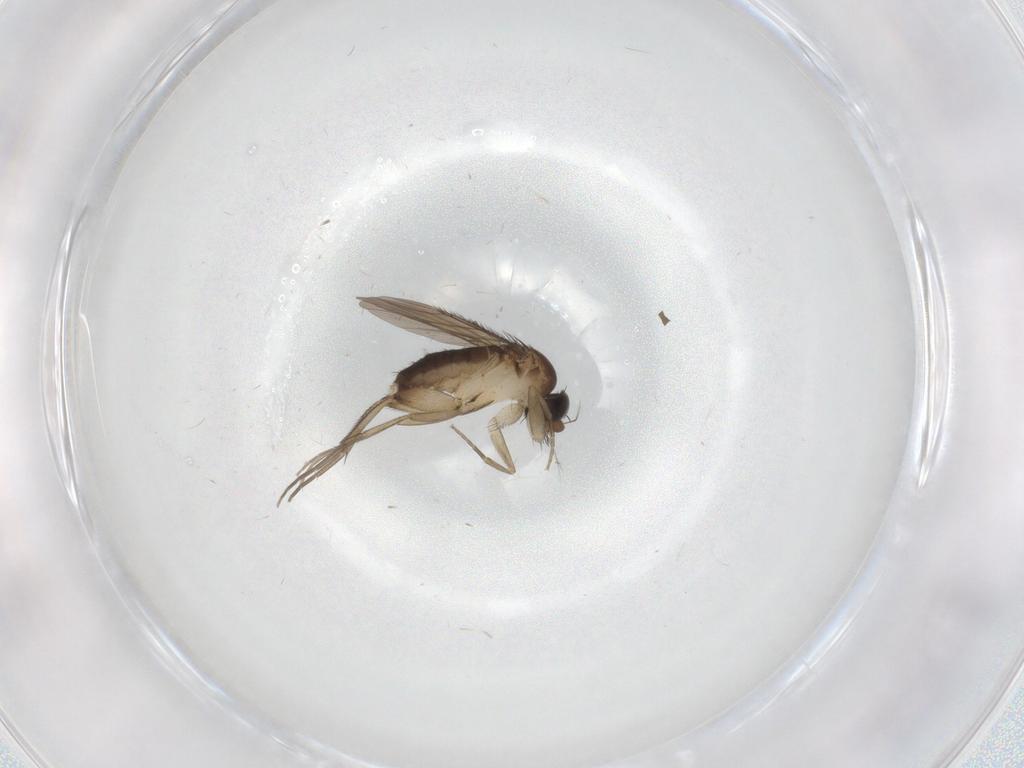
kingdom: Animalia
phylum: Arthropoda
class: Insecta
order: Diptera
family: Phoridae
